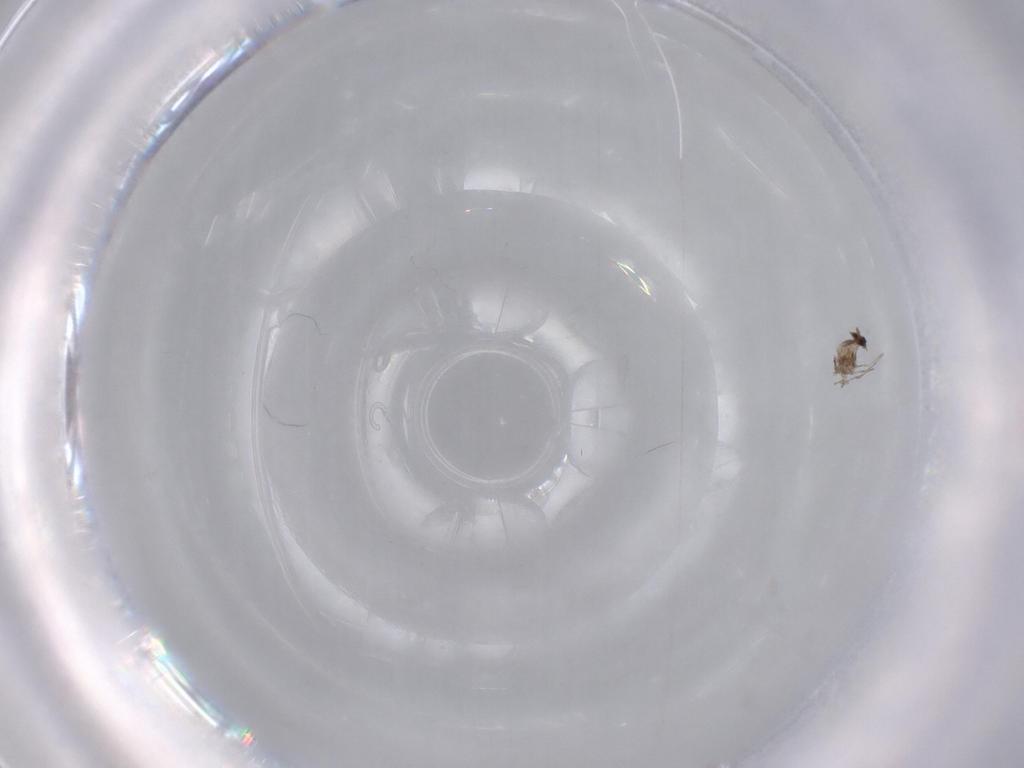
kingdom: Animalia
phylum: Arthropoda
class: Insecta
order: Diptera
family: Cecidomyiidae
